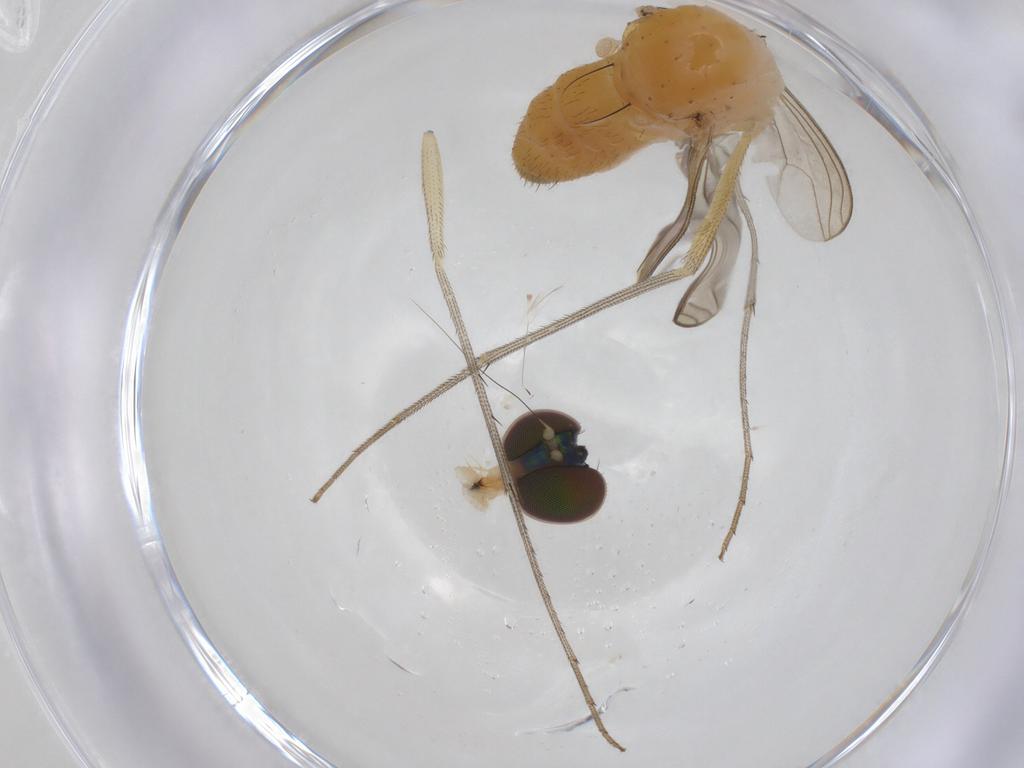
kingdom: Animalia
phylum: Arthropoda
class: Insecta
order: Diptera
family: Dolichopodidae
